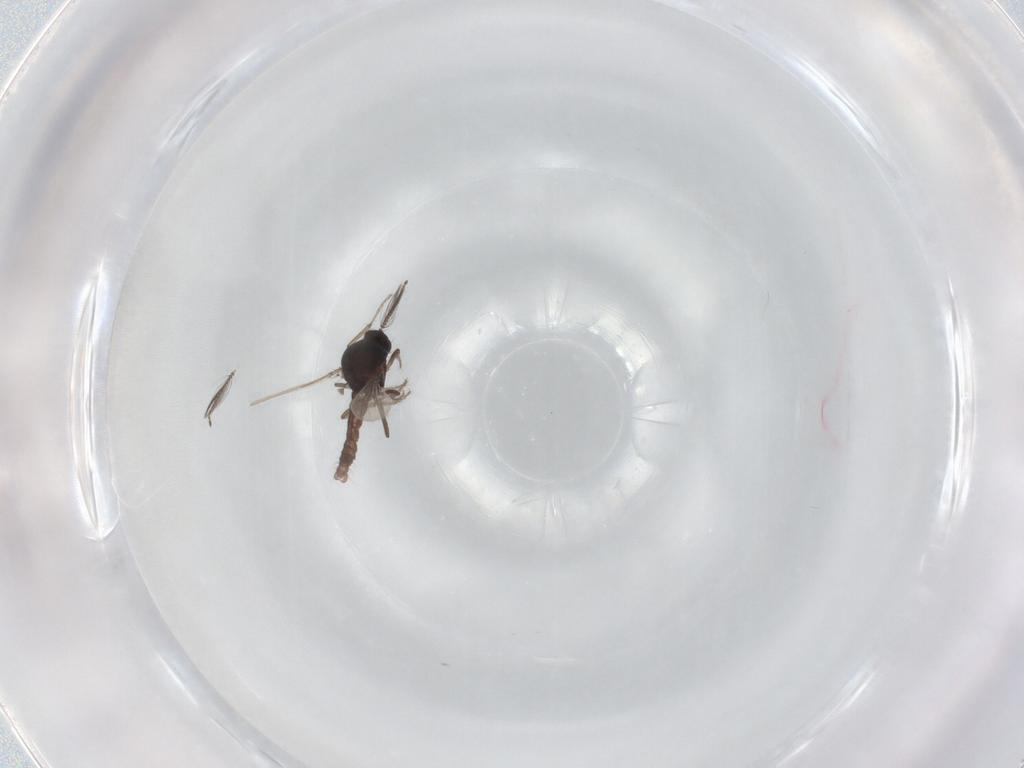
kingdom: Animalia
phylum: Arthropoda
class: Insecta
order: Diptera
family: Ceratopogonidae
